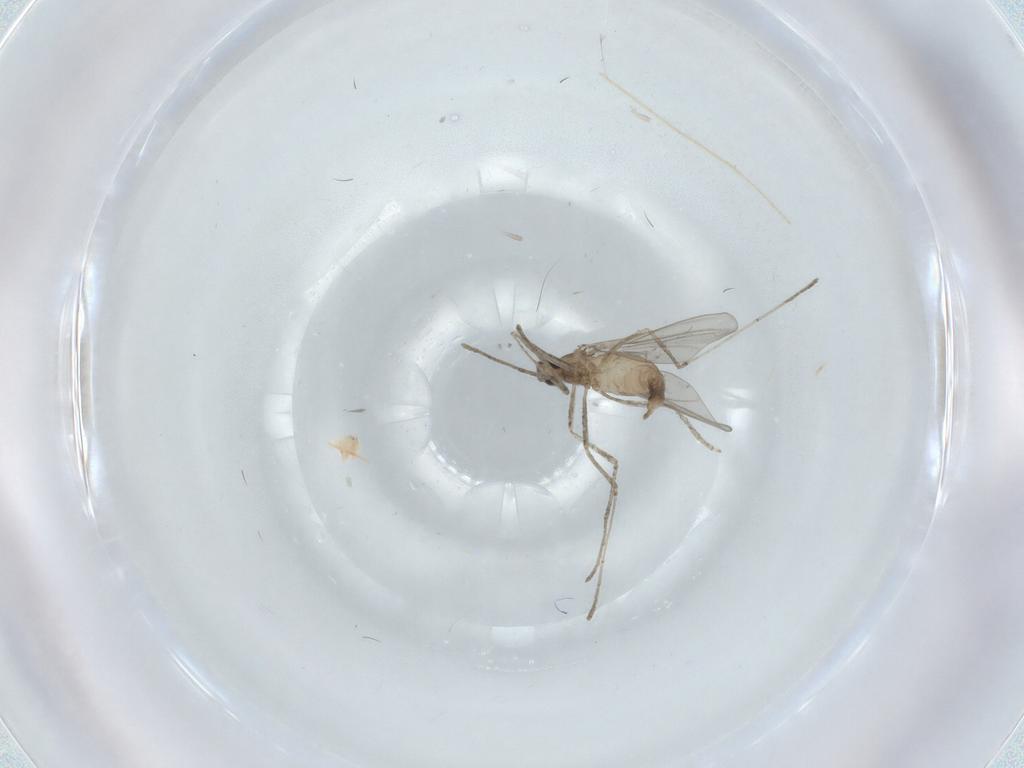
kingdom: Animalia
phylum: Arthropoda
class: Insecta
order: Diptera
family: Cecidomyiidae
